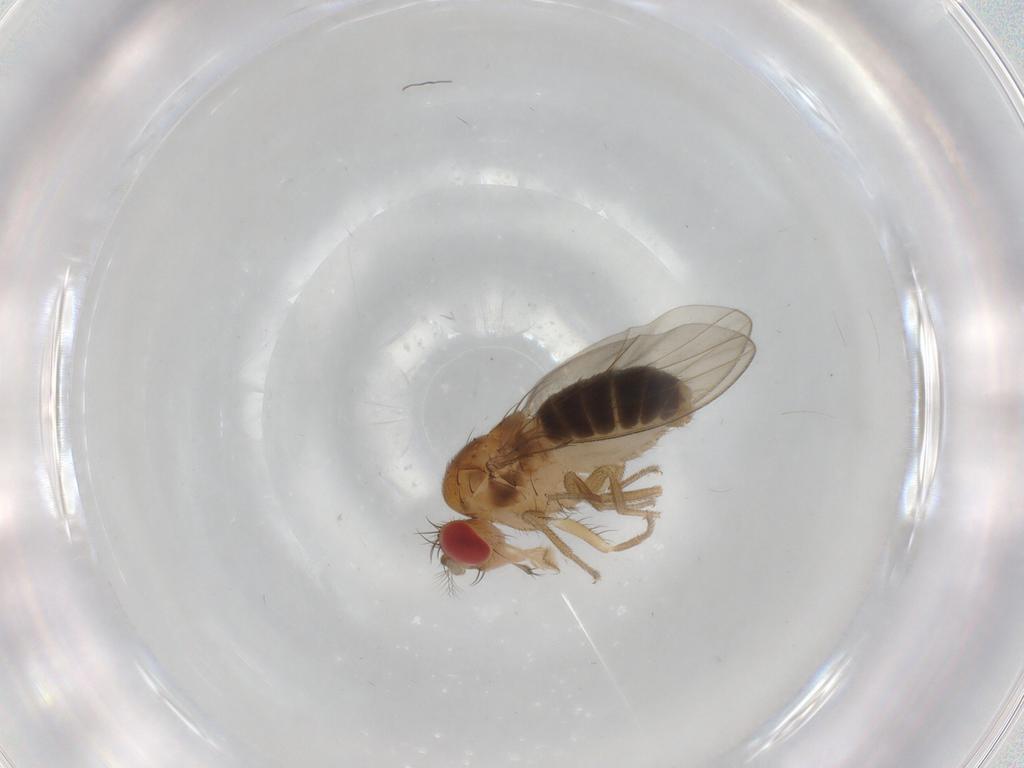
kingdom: Animalia
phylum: Arthropoda
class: Insecta
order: Diptera
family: Drosophilidae
